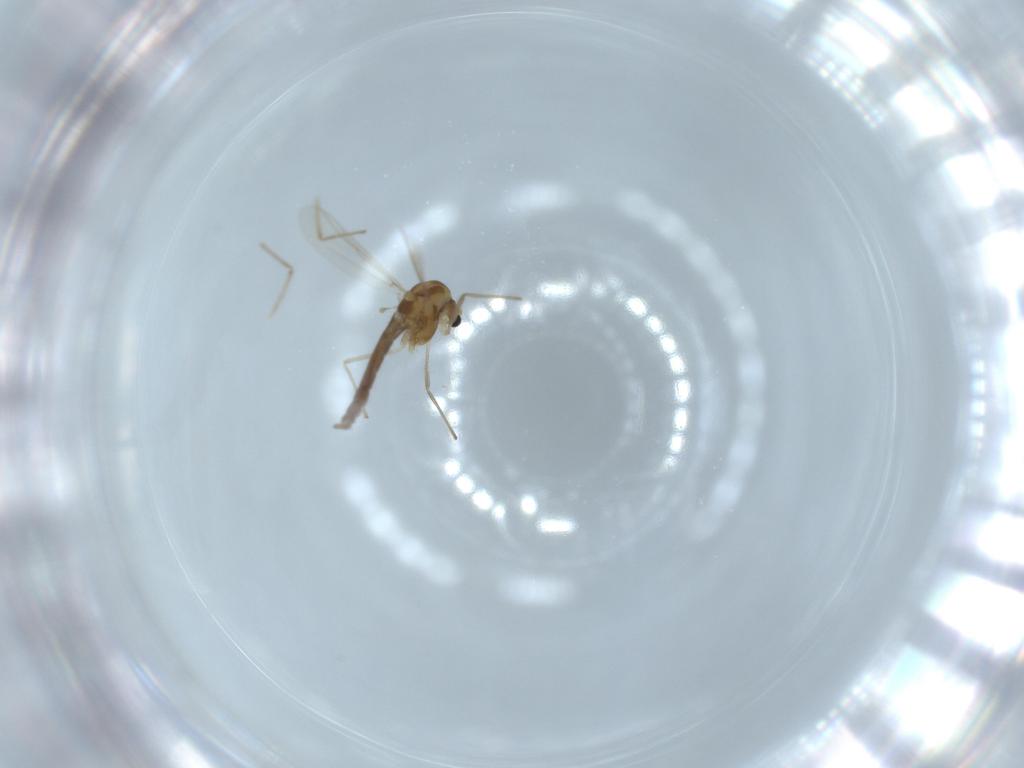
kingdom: Animalia
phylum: Arthropoda
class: Insecta
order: Diptera
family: Chironomidae
